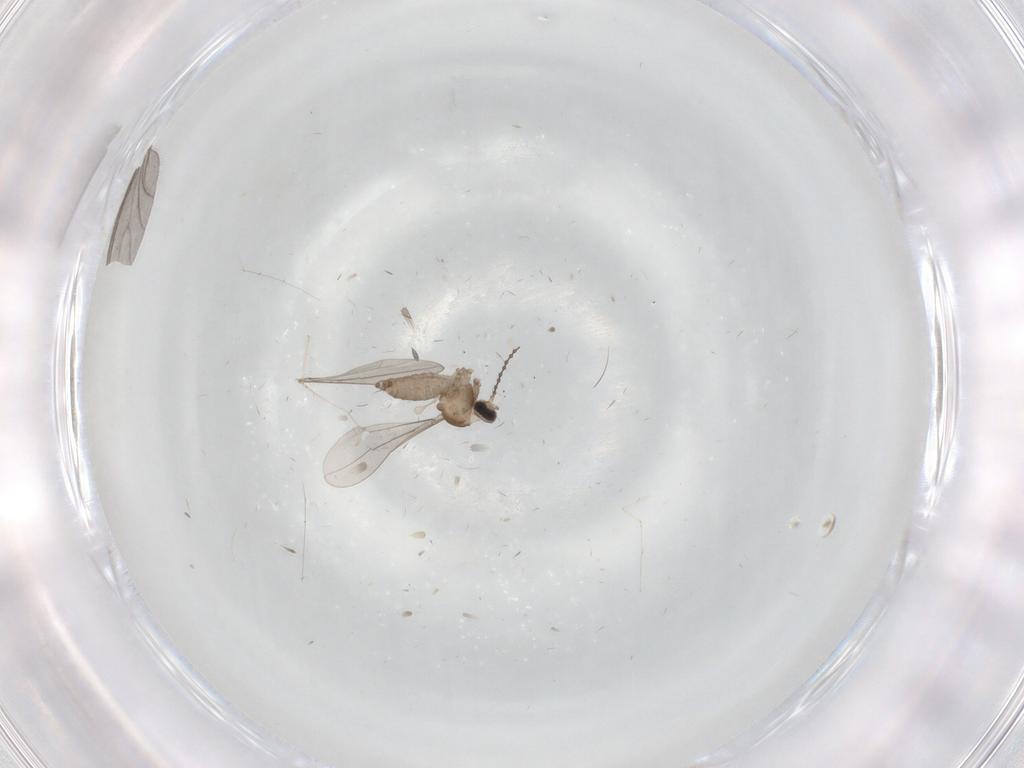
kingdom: Animalia
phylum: Arthropoda
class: Insecta
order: Diptera
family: Cecidomyiidae
